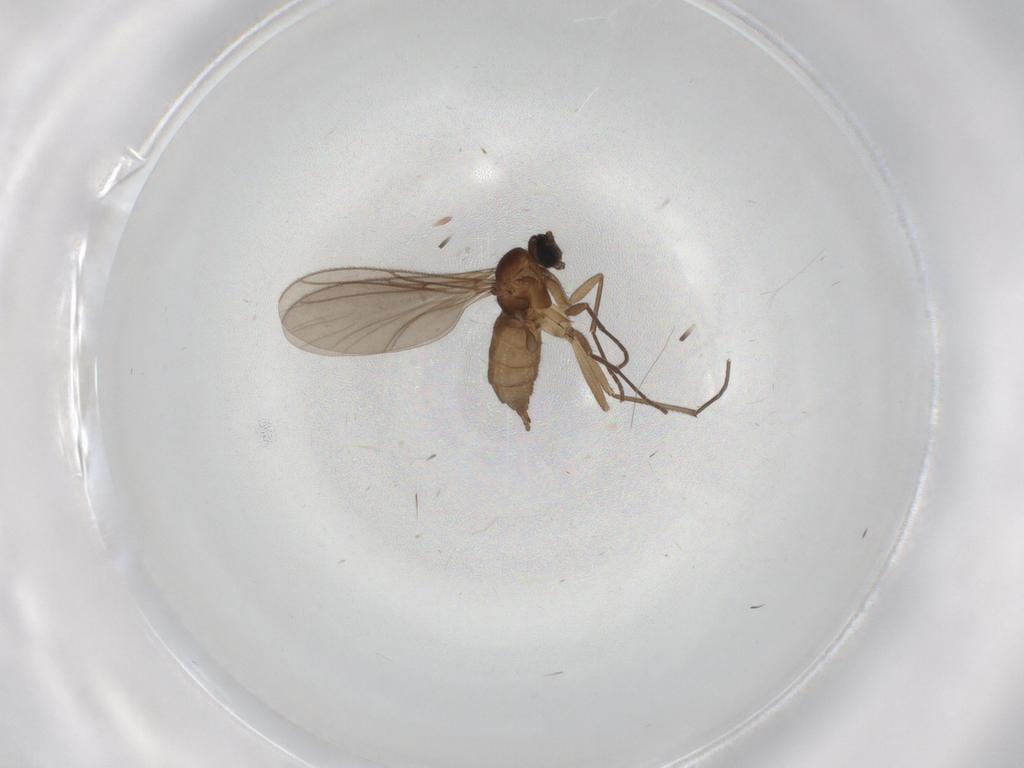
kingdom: Animalia
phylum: Arthropoda
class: Insecta
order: Diptera
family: Sciaridae
